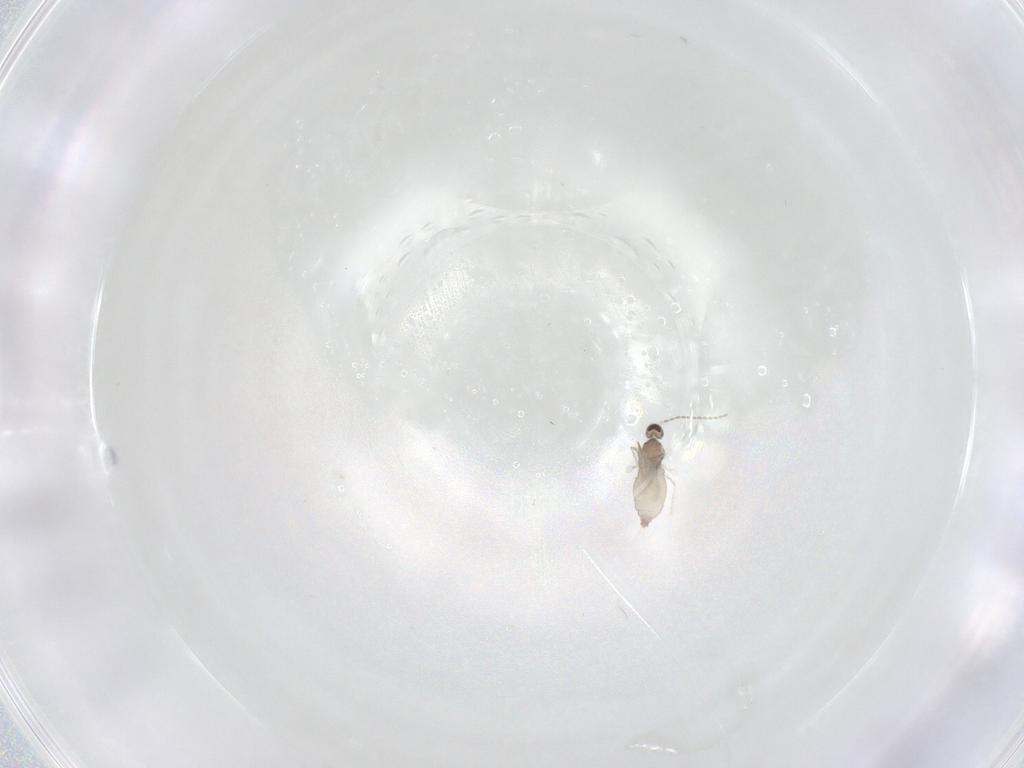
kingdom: Animalia
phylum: Arthropoda
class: Insecta
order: Diptera
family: Cecidomyiidae
